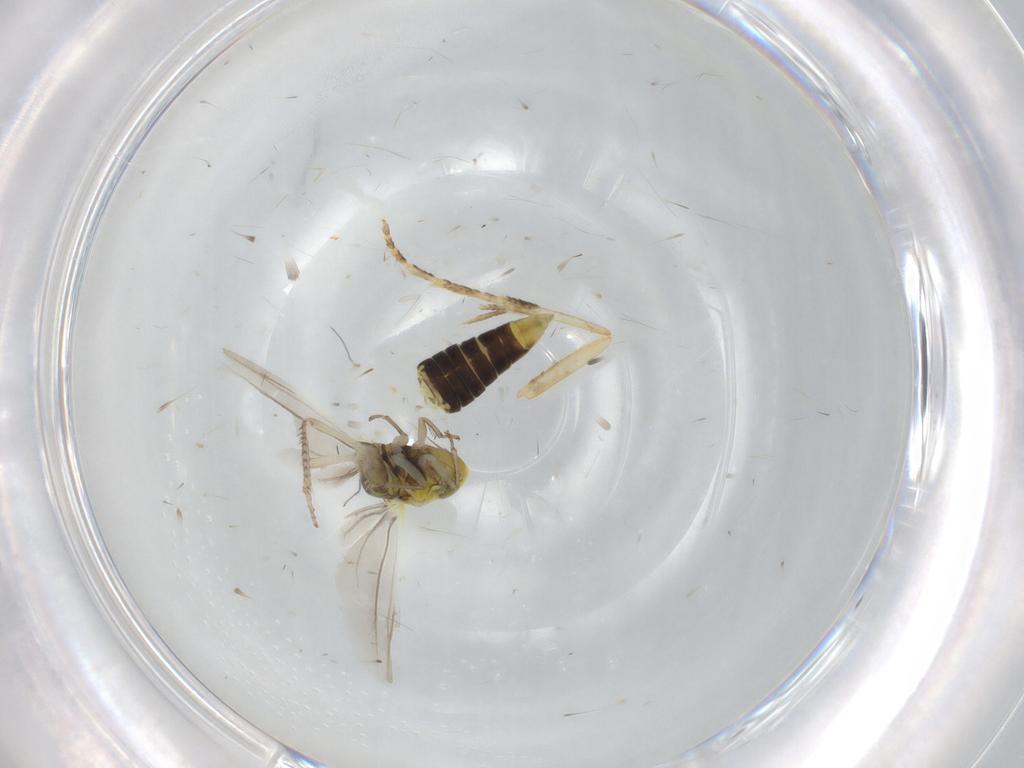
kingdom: Animalia
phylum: Arthropoda
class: Insecta
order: Hemiptera
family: Cicadellidae
